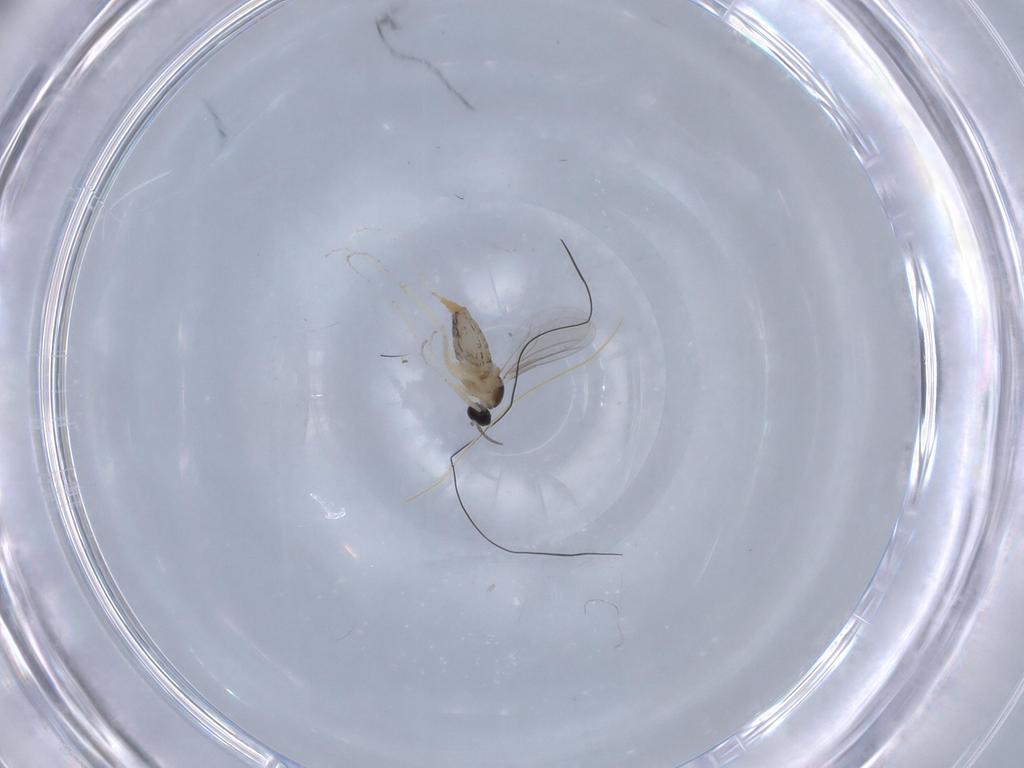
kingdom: Animalia
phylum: Arthropoda
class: Insecta
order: Diptera
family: Cecidomyiidae
